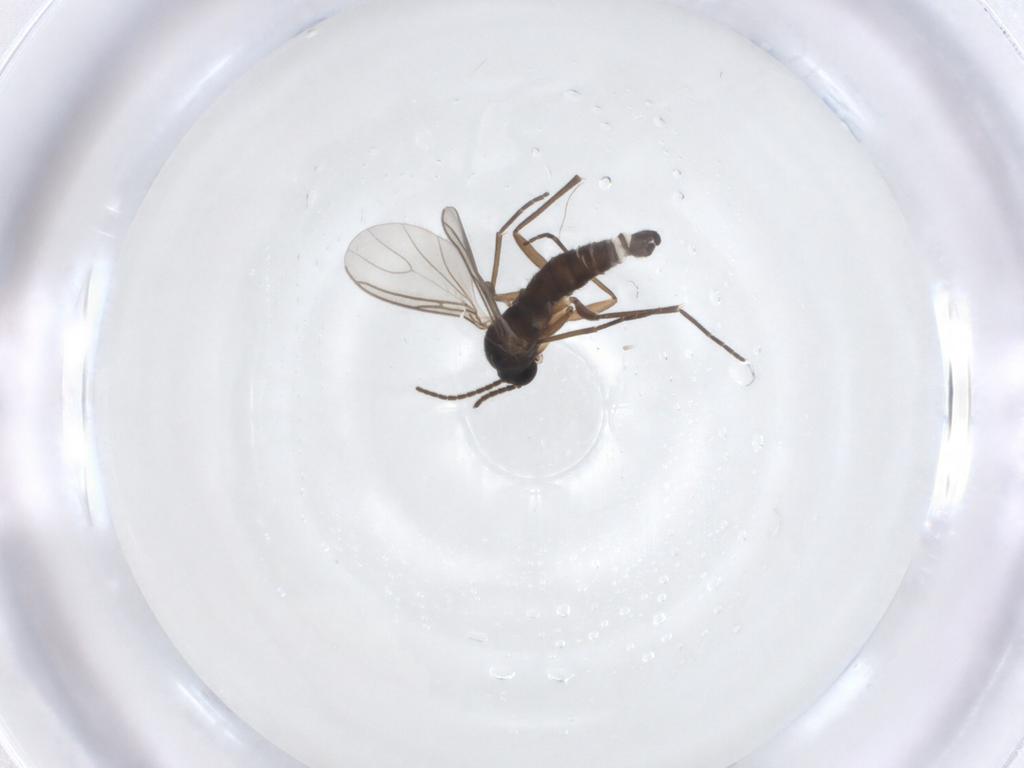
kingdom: Animalia
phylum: Arthropoda
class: Insecta
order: Diptera
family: Sciaridae
